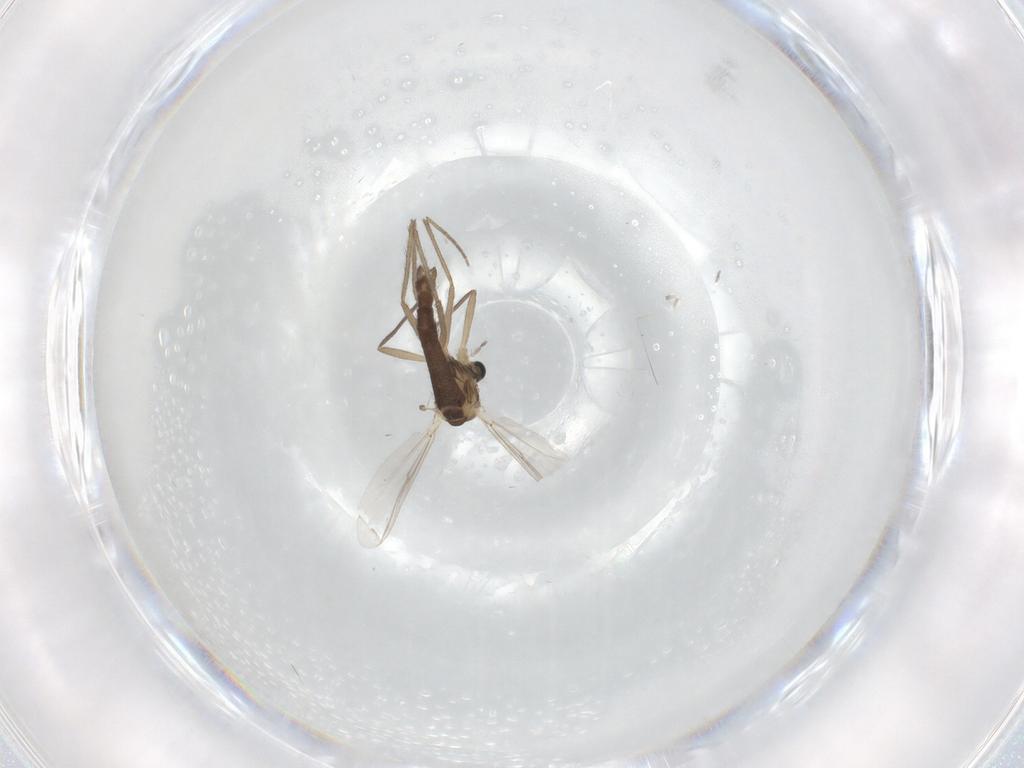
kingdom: Animalia
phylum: Arthropoda
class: Insecta
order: Diptera
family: Chironomidae
